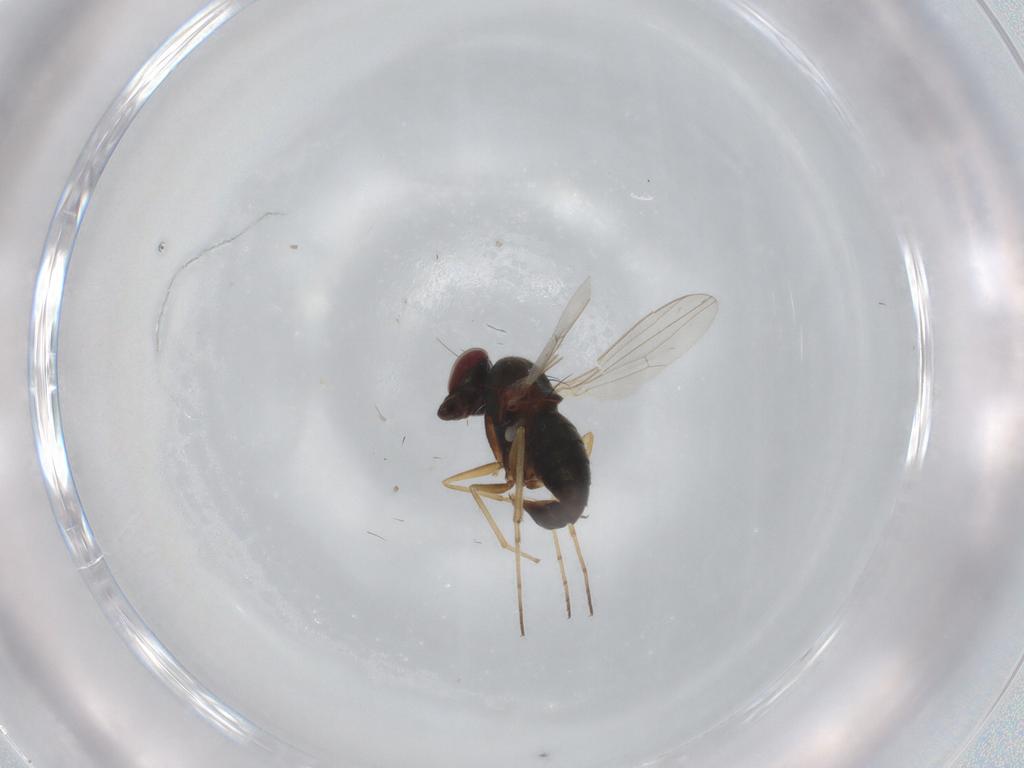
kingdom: Animalia
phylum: Arthropoda
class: Insecta
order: Diptera
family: Dolichopodidae
